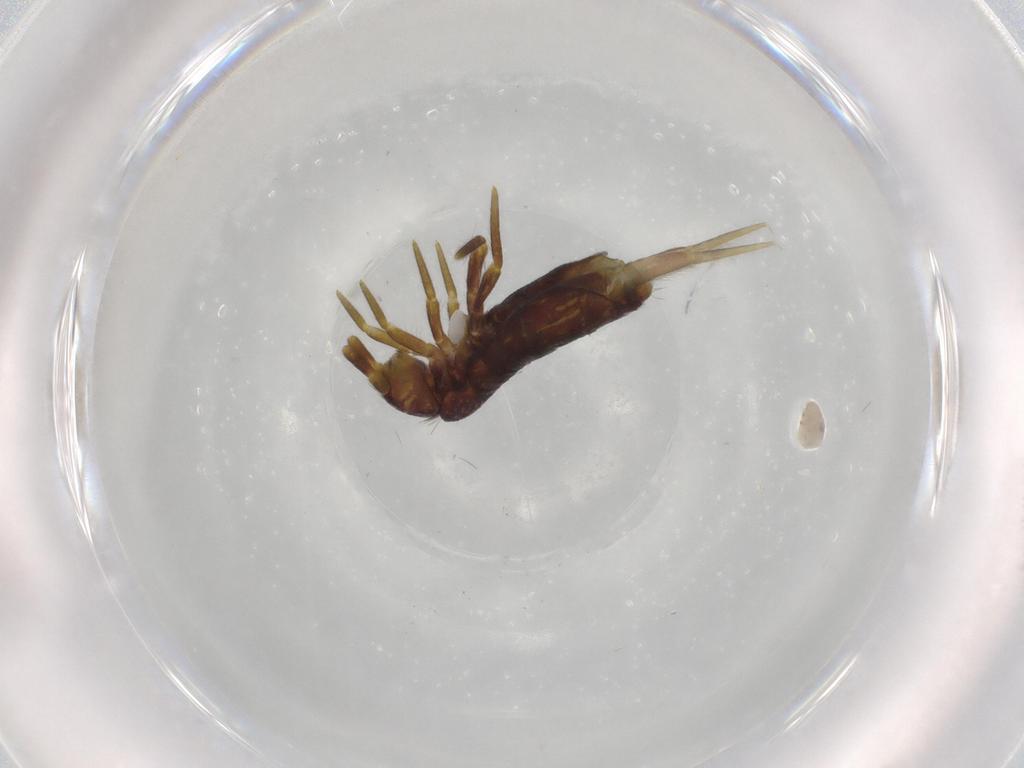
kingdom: Animalia
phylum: Arthropoda
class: Collembola
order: Entomobryomorpha
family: Tomoceridae
